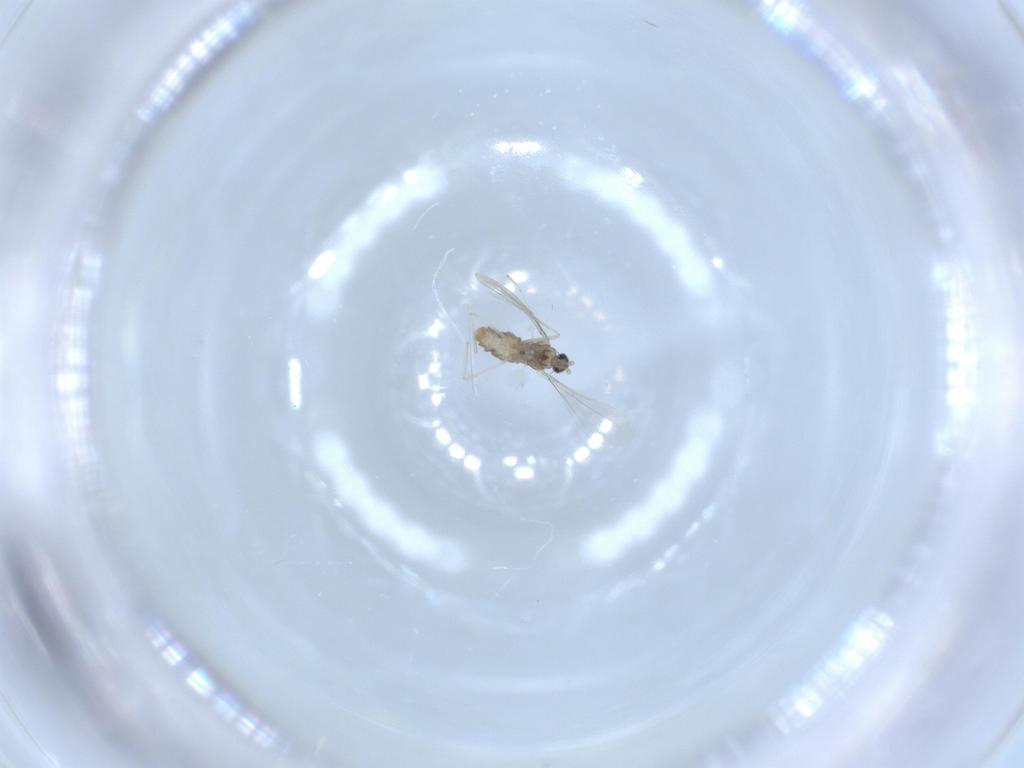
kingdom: Animalia
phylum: Arthropoda
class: Insecta
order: Diptera
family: Cecidomyiidae
